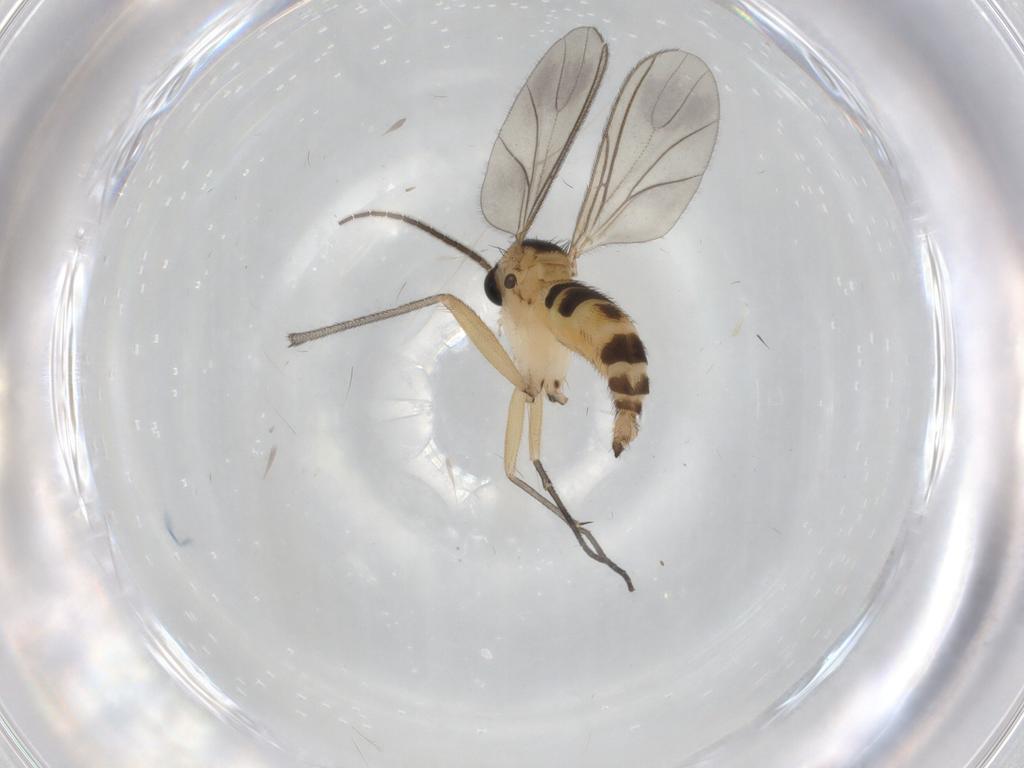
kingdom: Animalia
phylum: Arthropoda
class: Insecta
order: Diptera
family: Sciaridae
